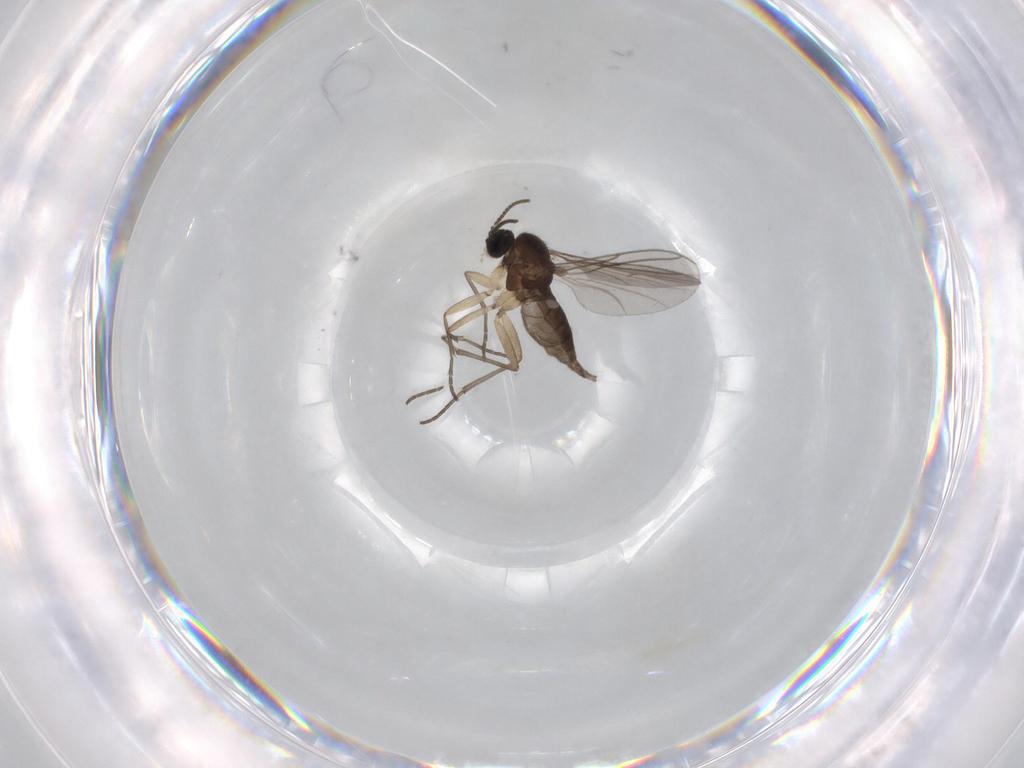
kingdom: Animalia
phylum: Arthropoda
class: Insecta
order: Diptera
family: Sciaridae
